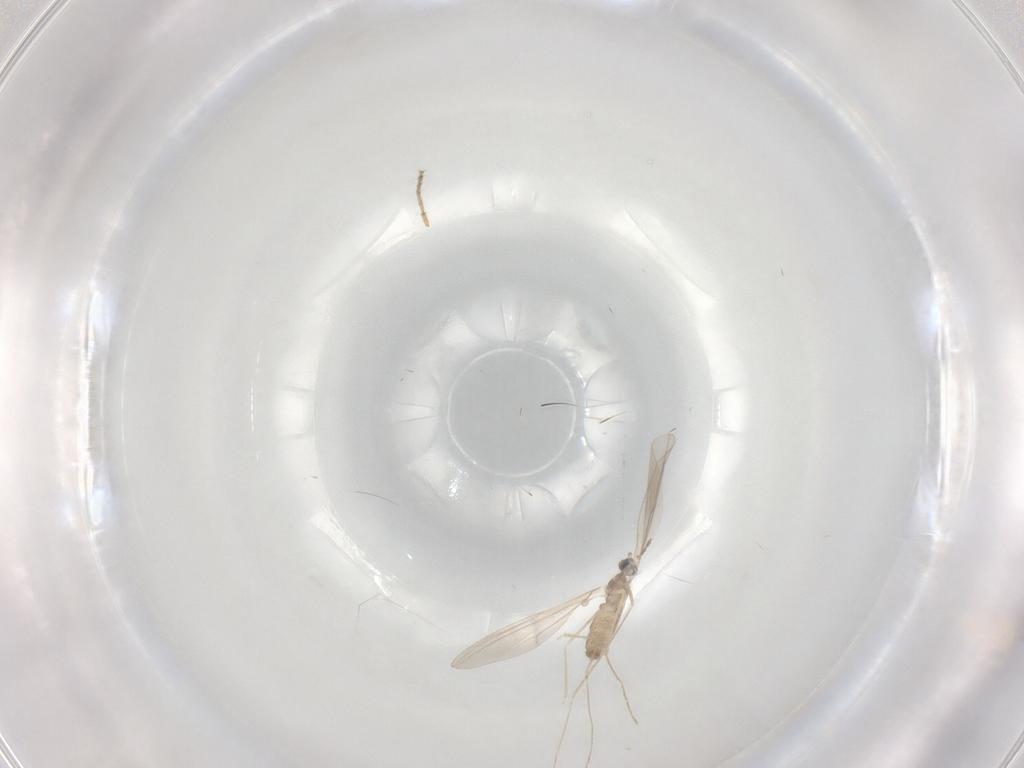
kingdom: Animalia
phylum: Arthropoda
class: Insecta
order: Diptera
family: Ceratopogonidae
